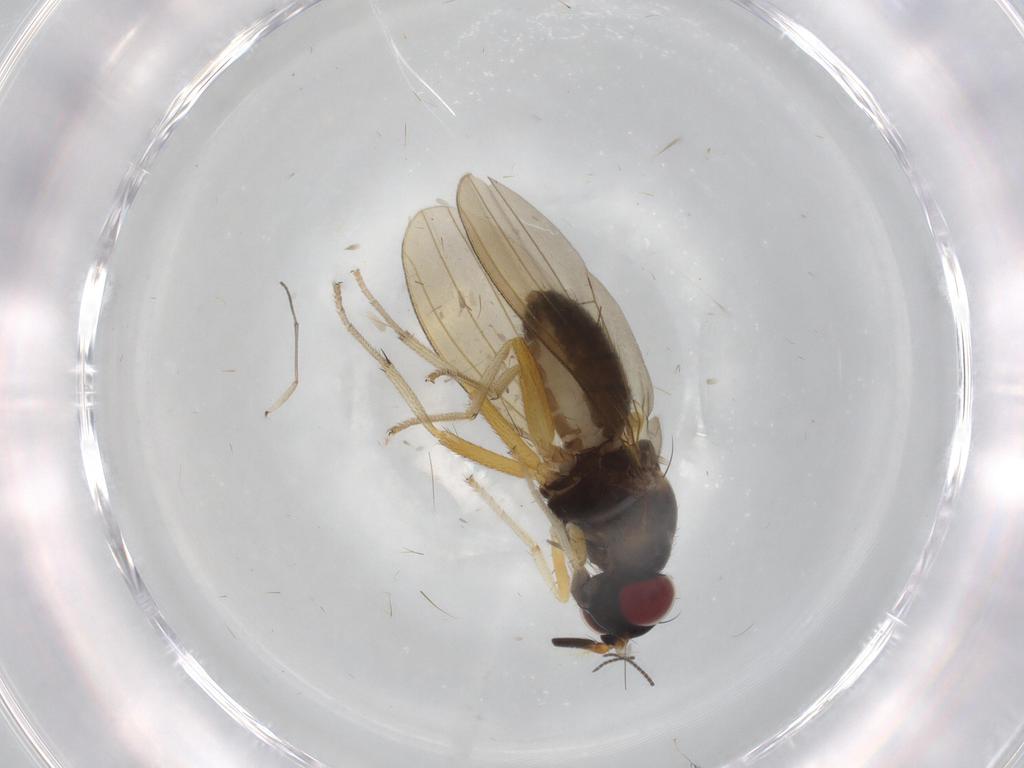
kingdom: Animalia
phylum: Arthropoda
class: Insecta
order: Diptera
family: Sciaridae
